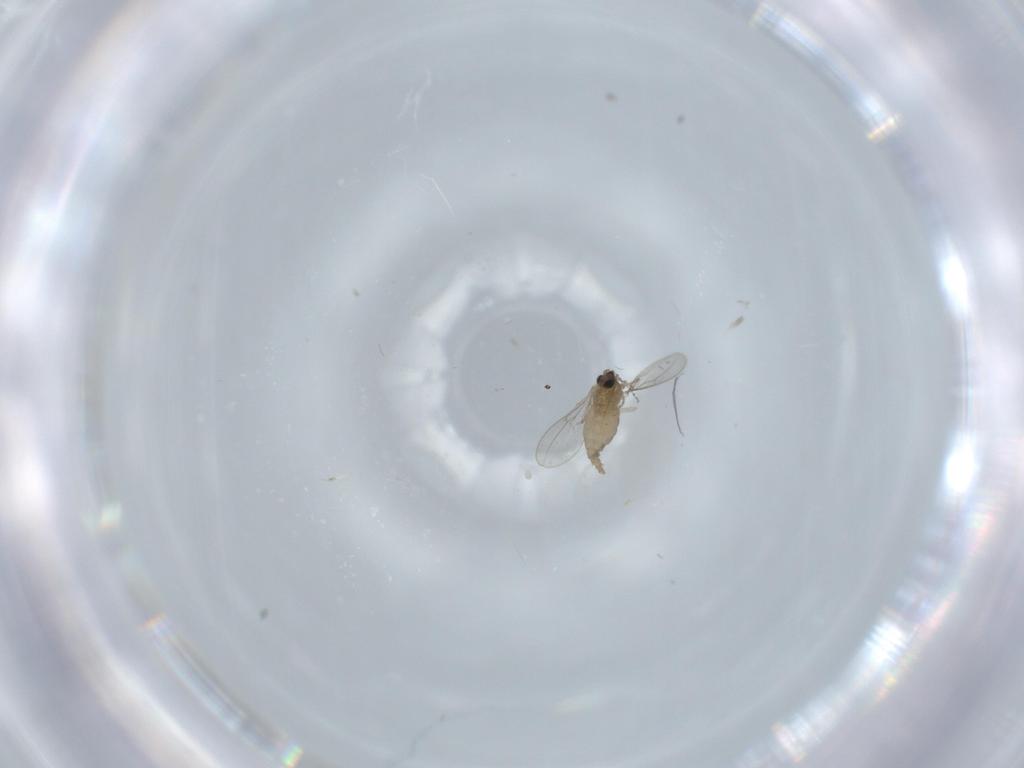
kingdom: Animalia
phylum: Arthropoda
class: Insecta
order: Diptera
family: Cecidomyiidae
